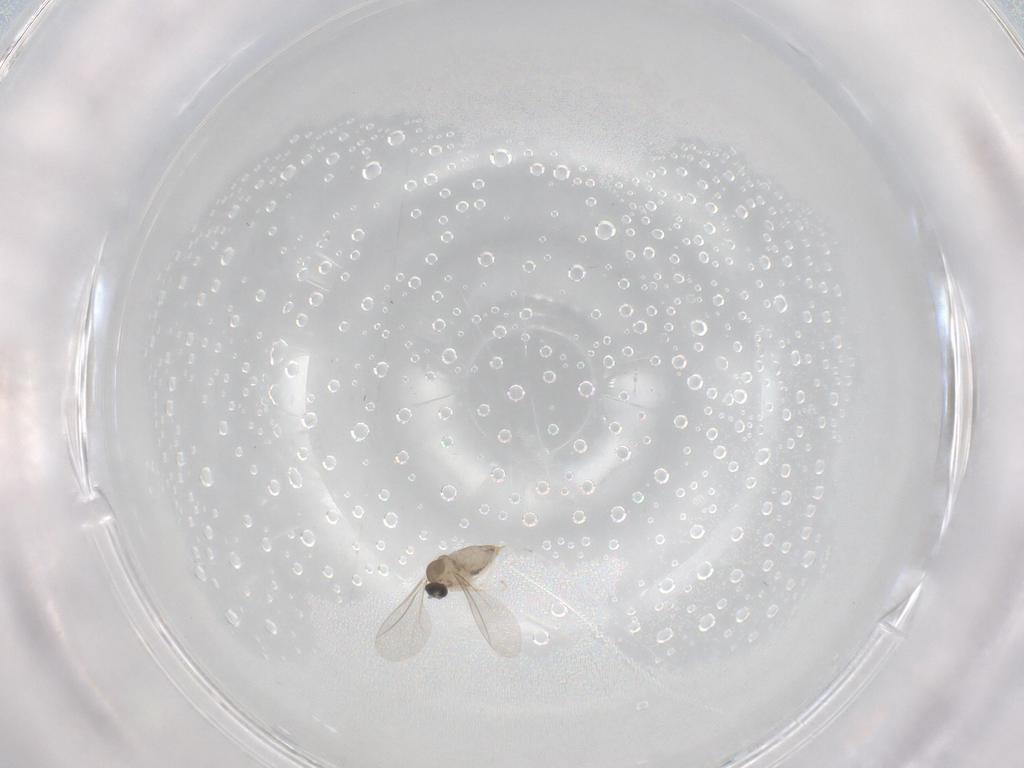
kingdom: Animalia
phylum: Arthropoda
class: Insecta
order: Diptera
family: Cecidomyiidae
